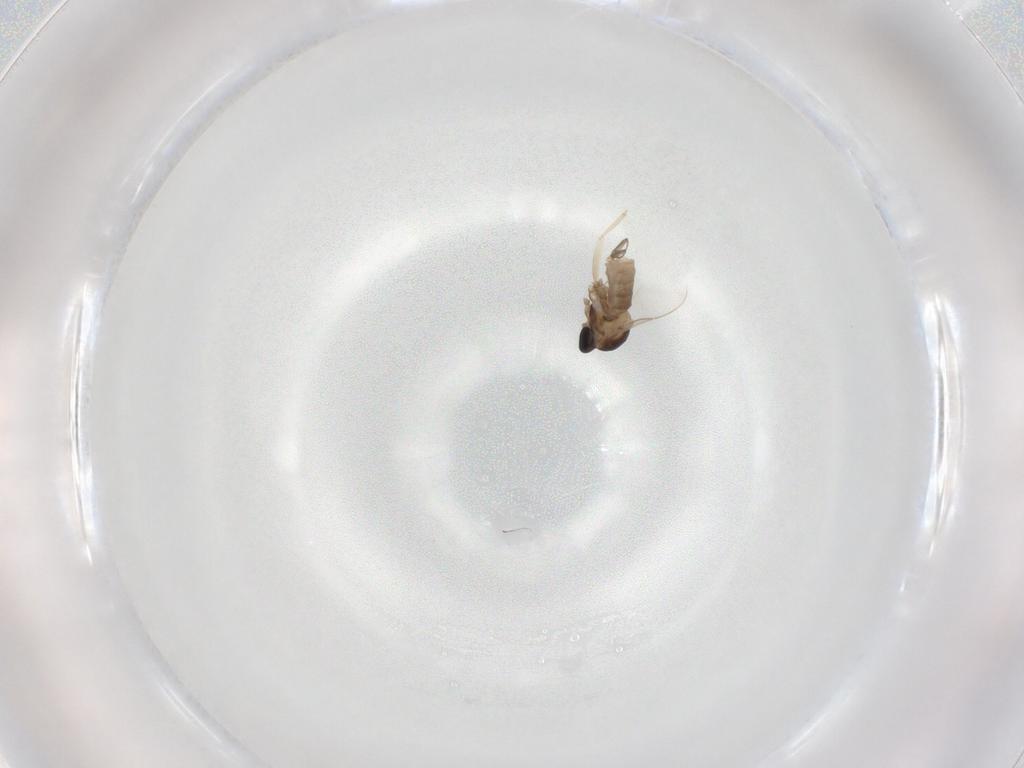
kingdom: Animalia
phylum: Arthropoda
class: Insecta
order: Diptera
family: Cecidomyiidae
